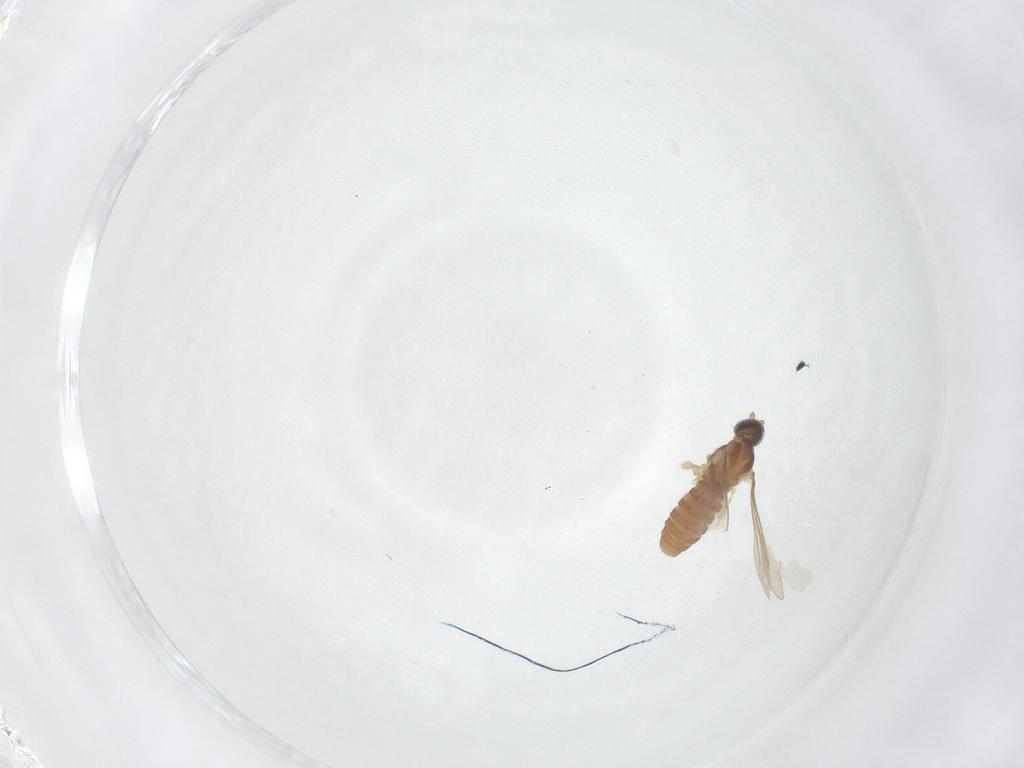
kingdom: Animalia
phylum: Arthropoda
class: Insecta
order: Diptera
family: Cecidomyiidae
